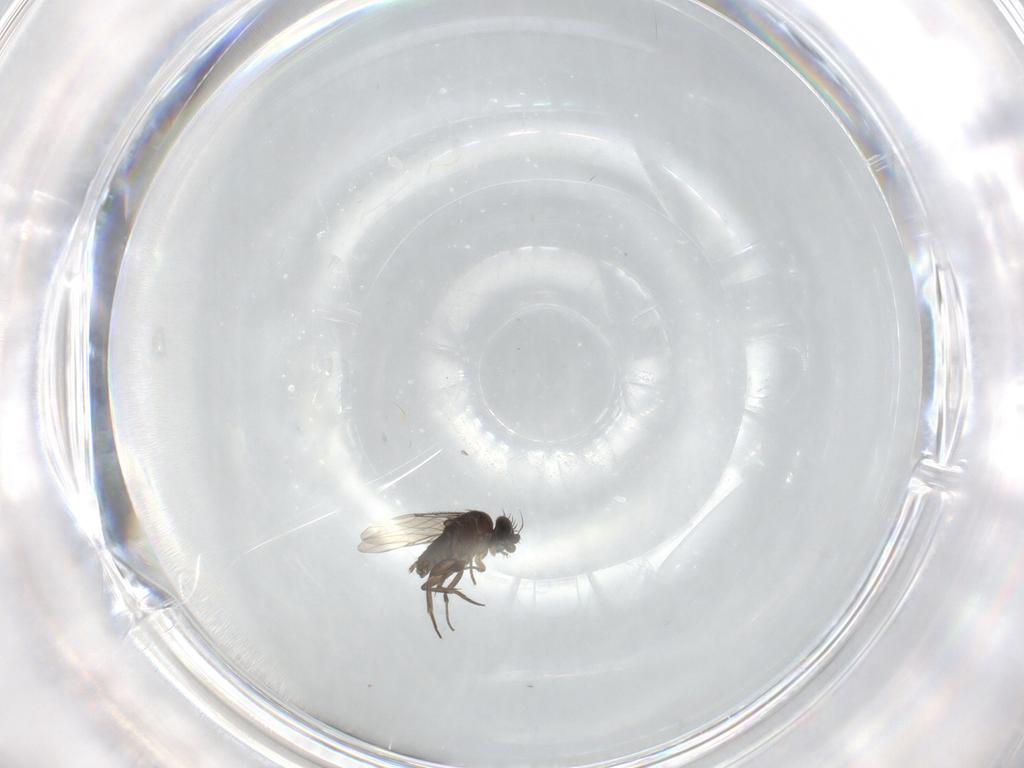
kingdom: Animalia
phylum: Arthropoda
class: Insecta
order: Diptera
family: Phoridae
